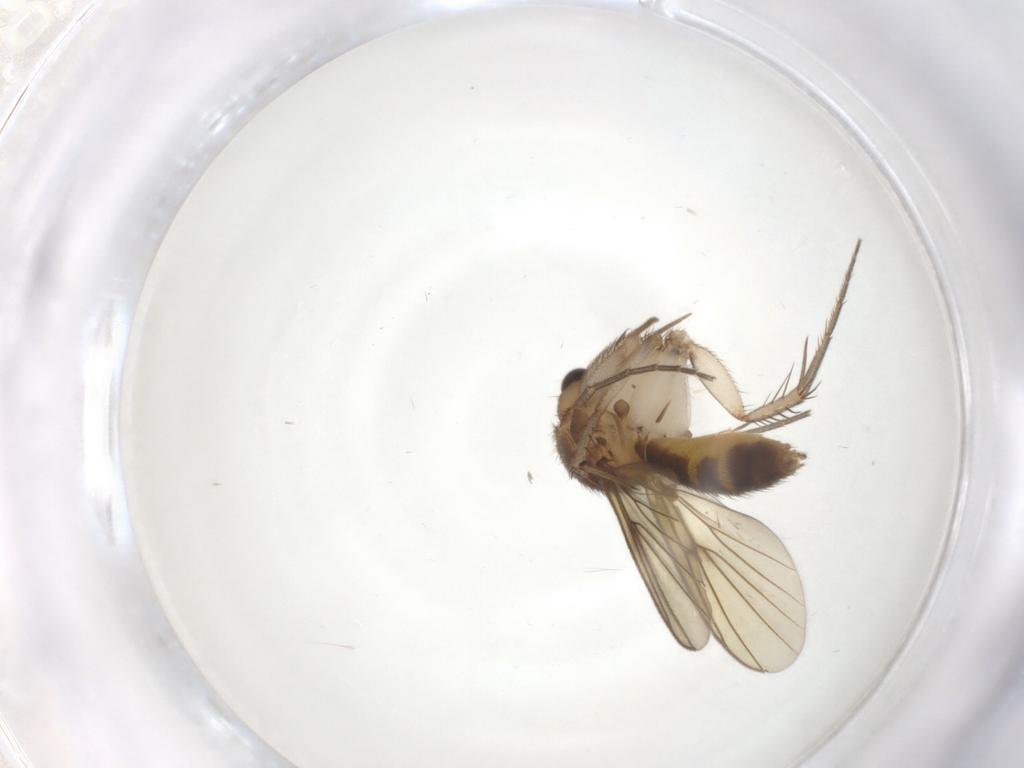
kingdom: Animalia
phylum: Arthropoda
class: Insecta
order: Diptera
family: Mycetophilidae
